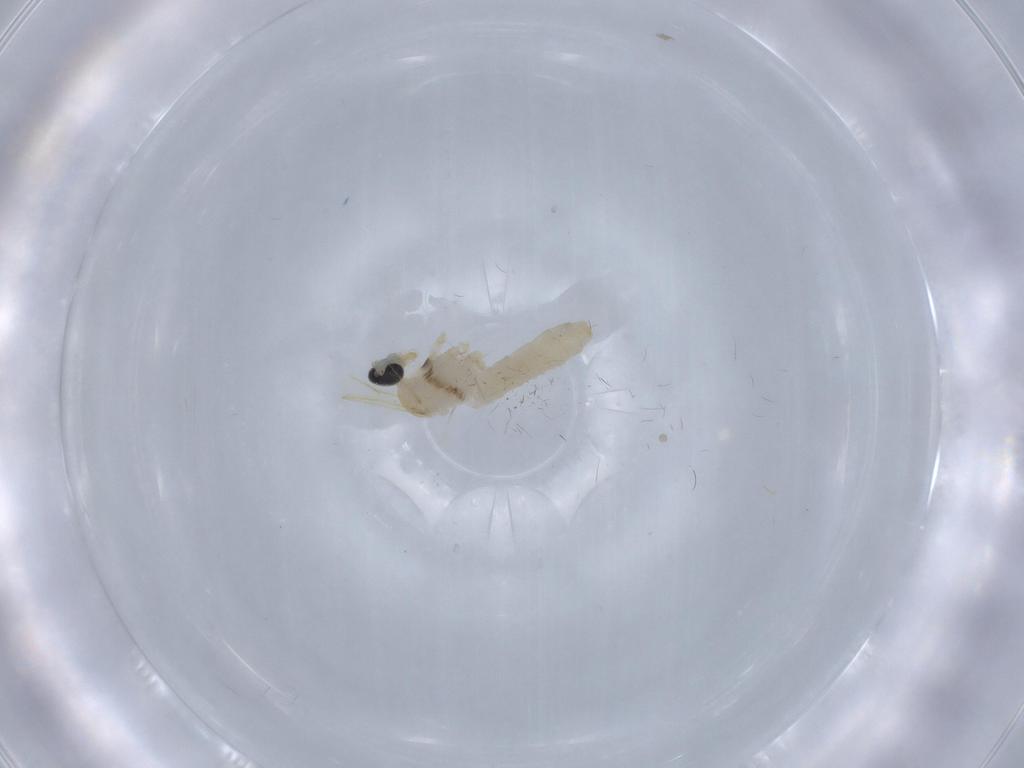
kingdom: Animalia
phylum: Arthropoda
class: Insecta
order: Diptera
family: Cecidomyiidae
